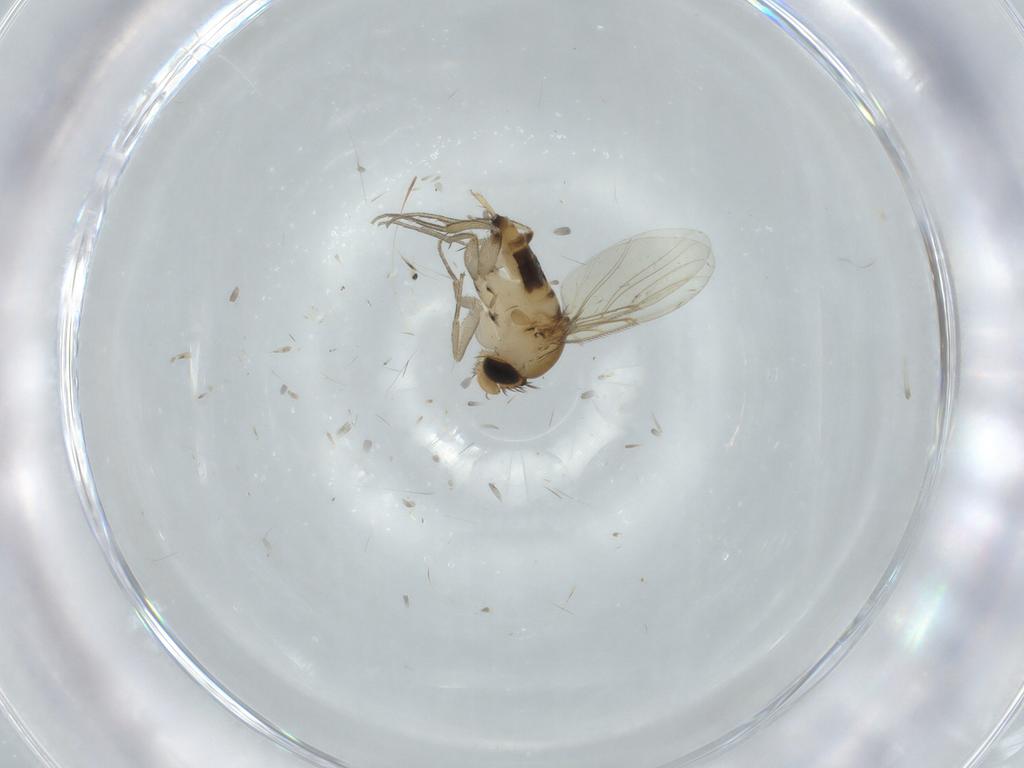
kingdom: Animalia
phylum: Arthropoda
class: Insecta
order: Diptera
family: Phoridae
